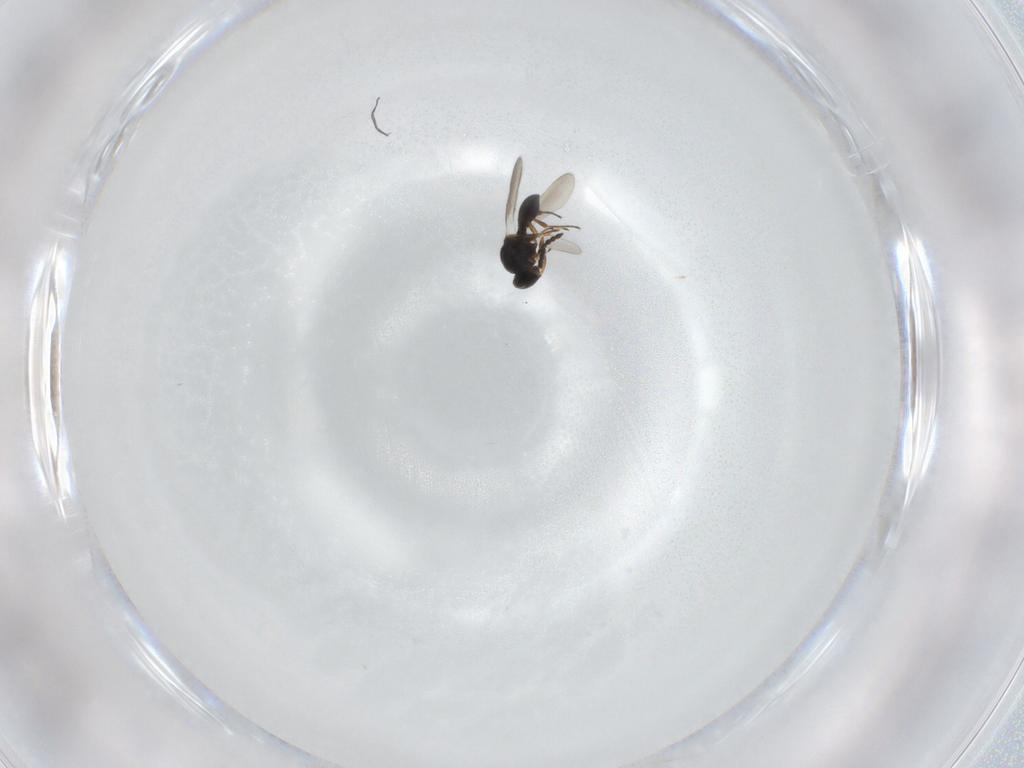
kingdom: Animalia
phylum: Arthropoda
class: Insecta
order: Hymenoptera
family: Platygastridae
